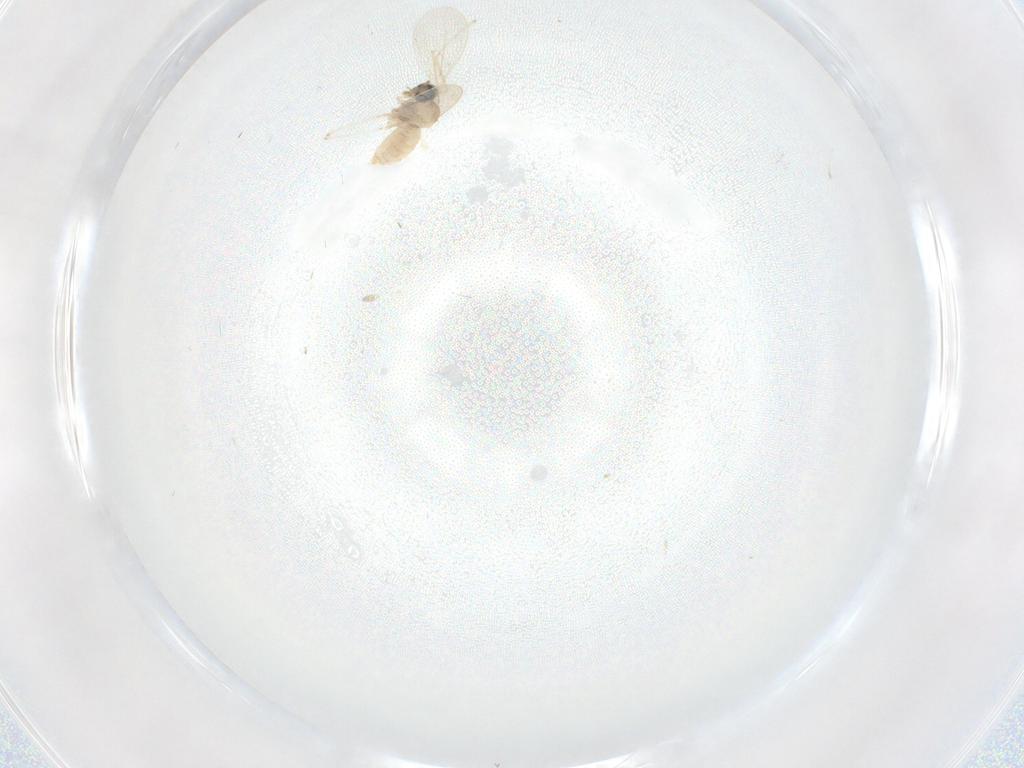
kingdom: Animalia
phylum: Arthropoda
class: Insecta
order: Diptera
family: Cecidomyiidae
